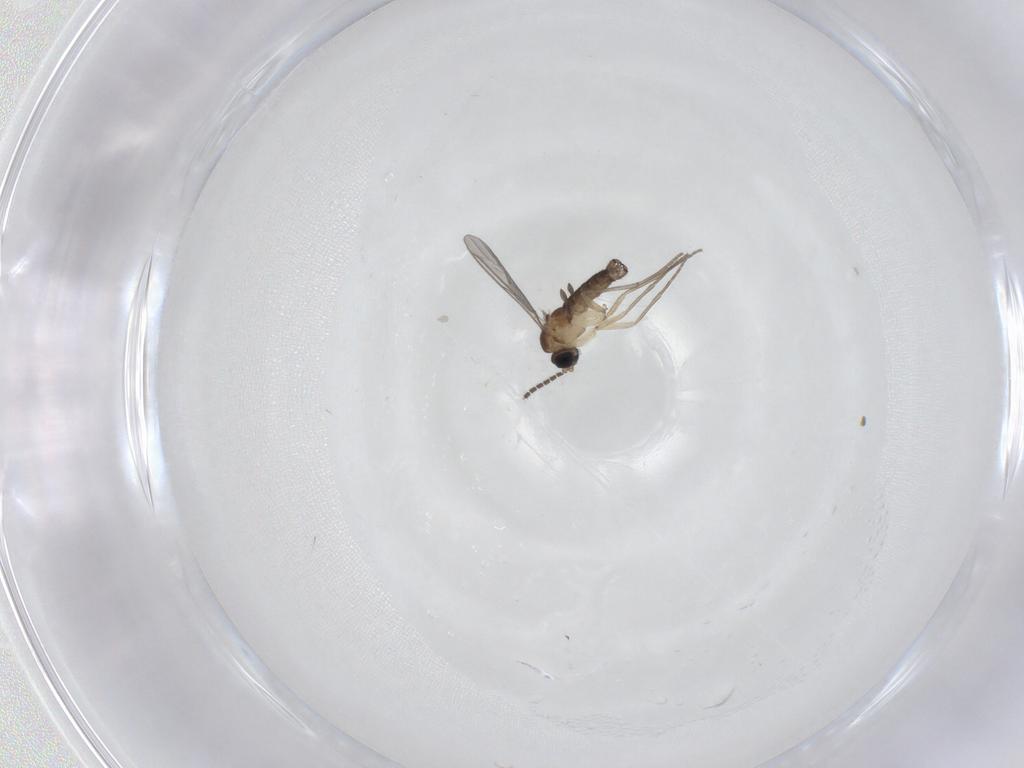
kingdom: Animalia
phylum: Arthropoda
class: Insecta
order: Diptera
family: Sciaridae
